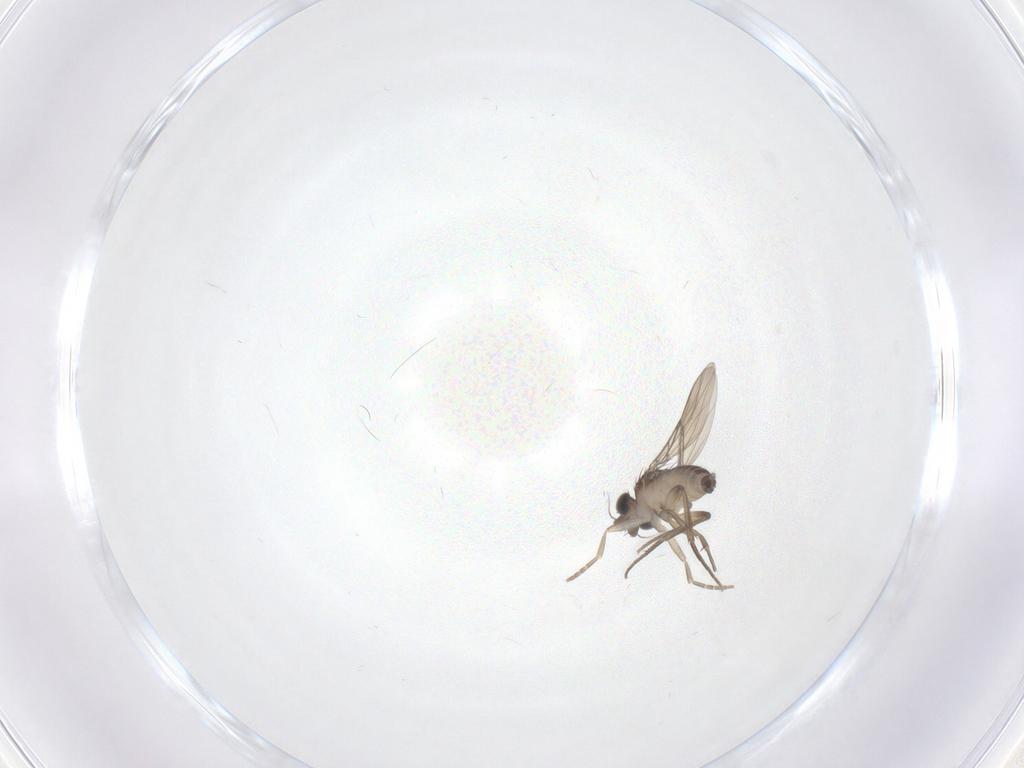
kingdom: Animalia
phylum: Arthropoda
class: Insecta
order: Diptera
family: Phoridae
